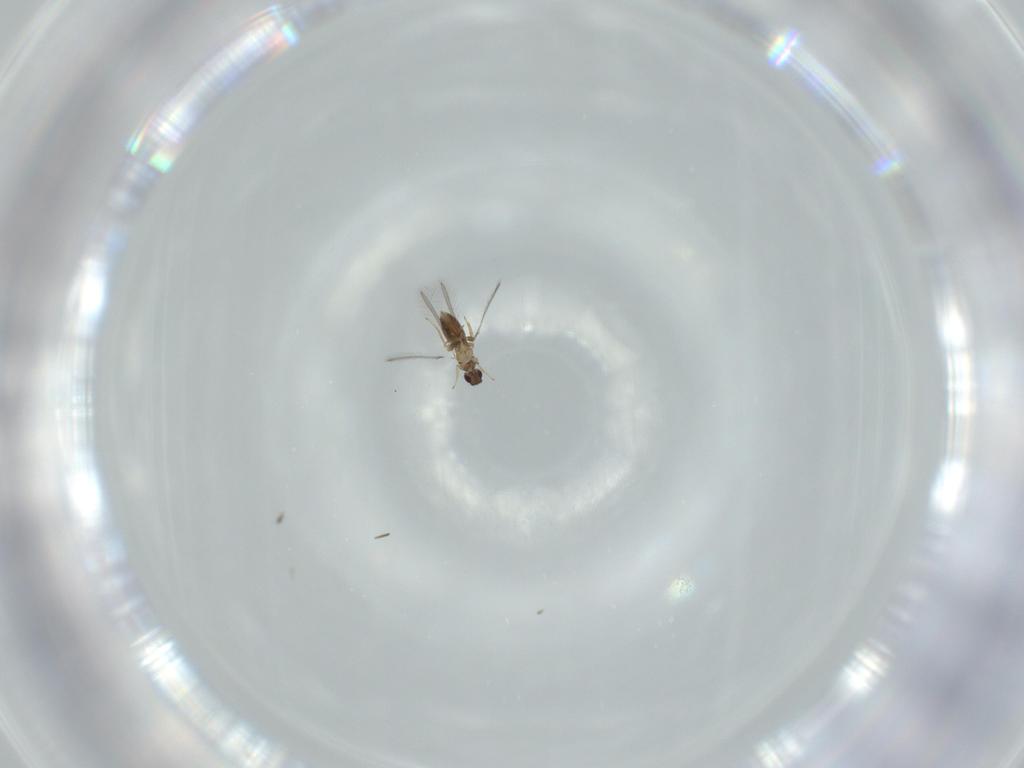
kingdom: Animalia
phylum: Arthropoda
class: Insecta
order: Hymenoptera
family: Mymaridae
